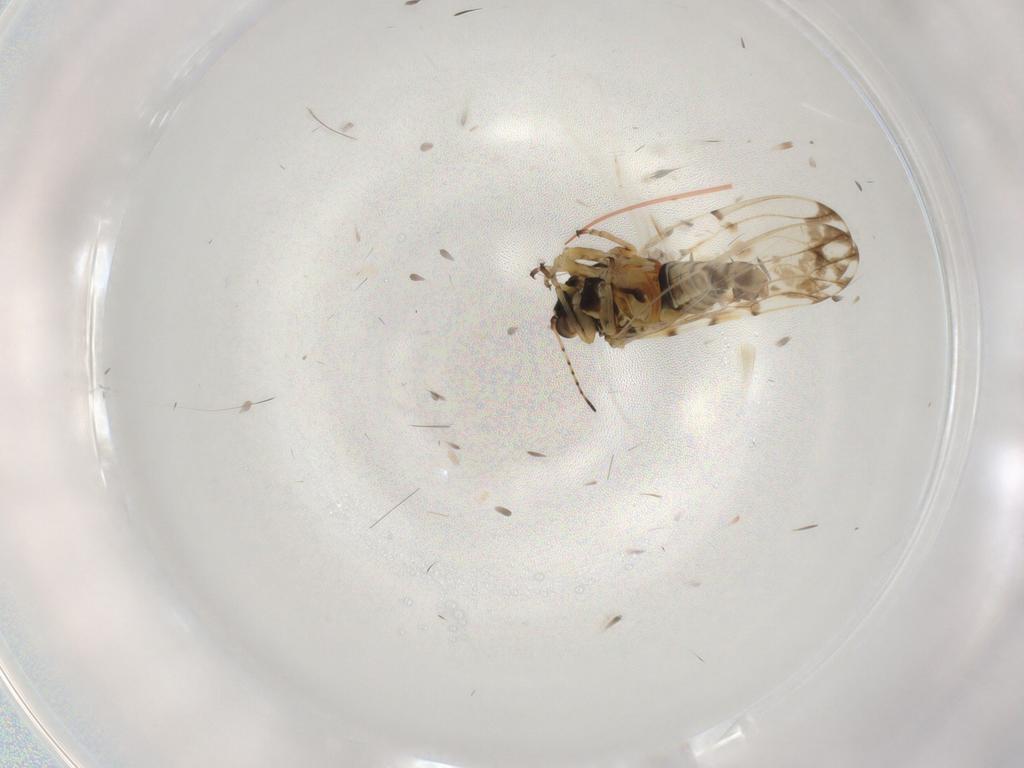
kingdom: Animalia
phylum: Arthropoda
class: Insecta
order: Hemiptera
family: Psylloidea_incertae_sedis
